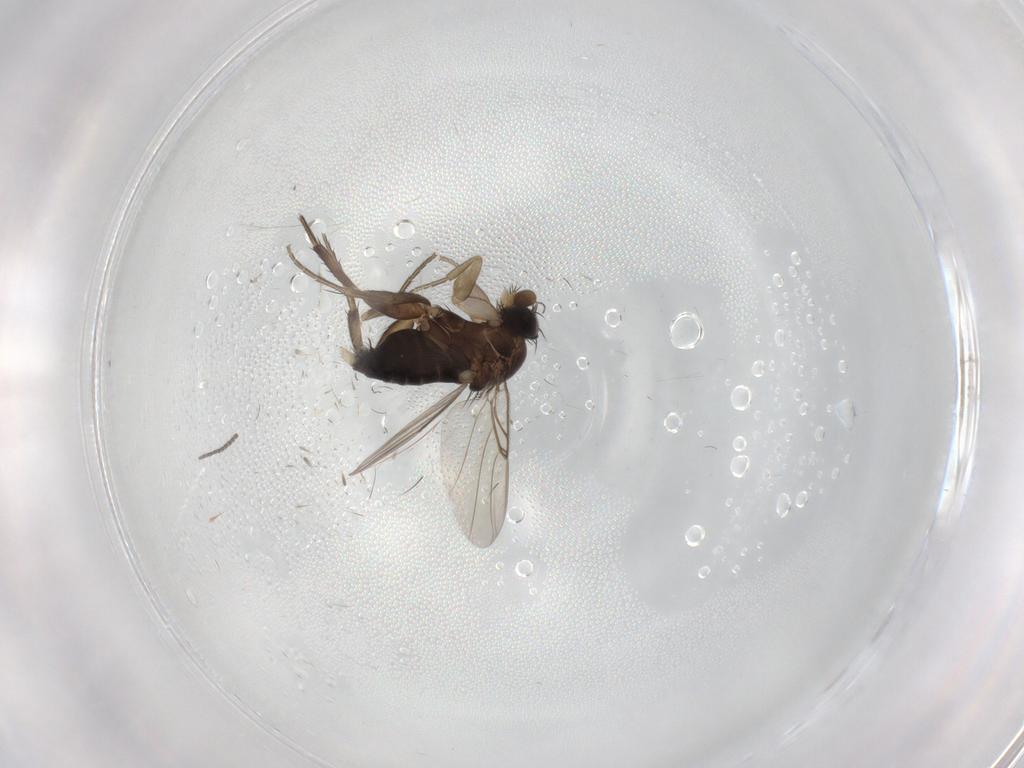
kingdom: Animalia
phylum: Arthropoda
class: Insecta
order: Diptera
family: Phoridae
